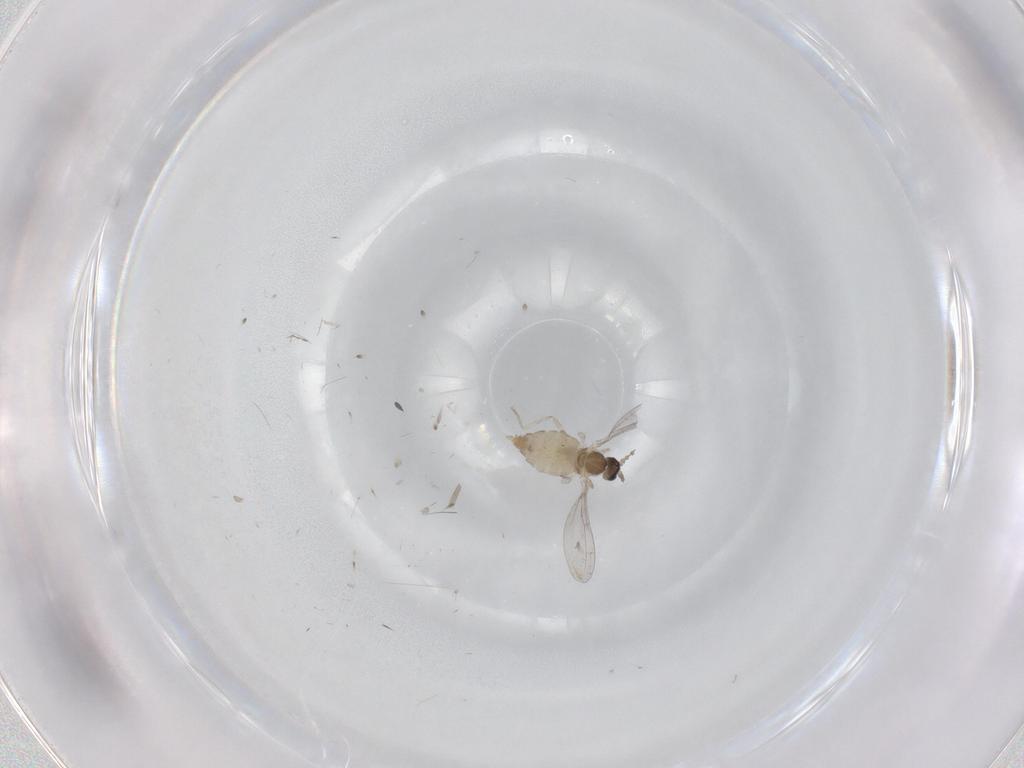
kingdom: Animalia
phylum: Arthropoda
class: Insecta
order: Diptera
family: Cecidomyiidae
